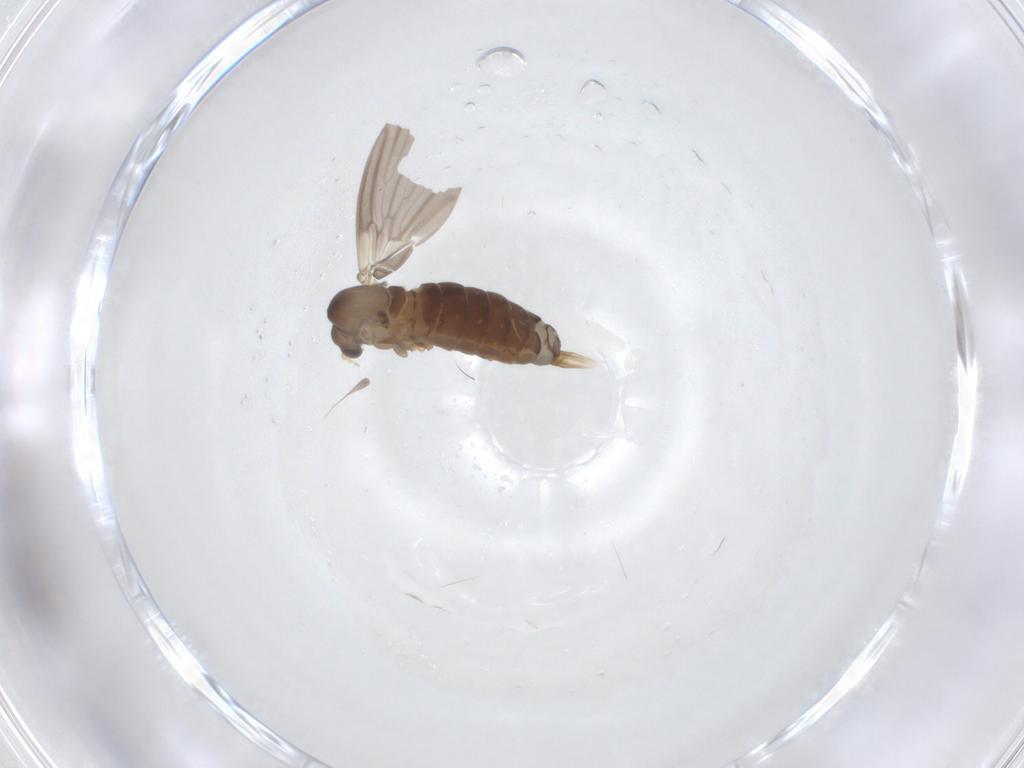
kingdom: Animalia
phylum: Arthropoda
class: Insecta
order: Diptera
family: Psychodidae
